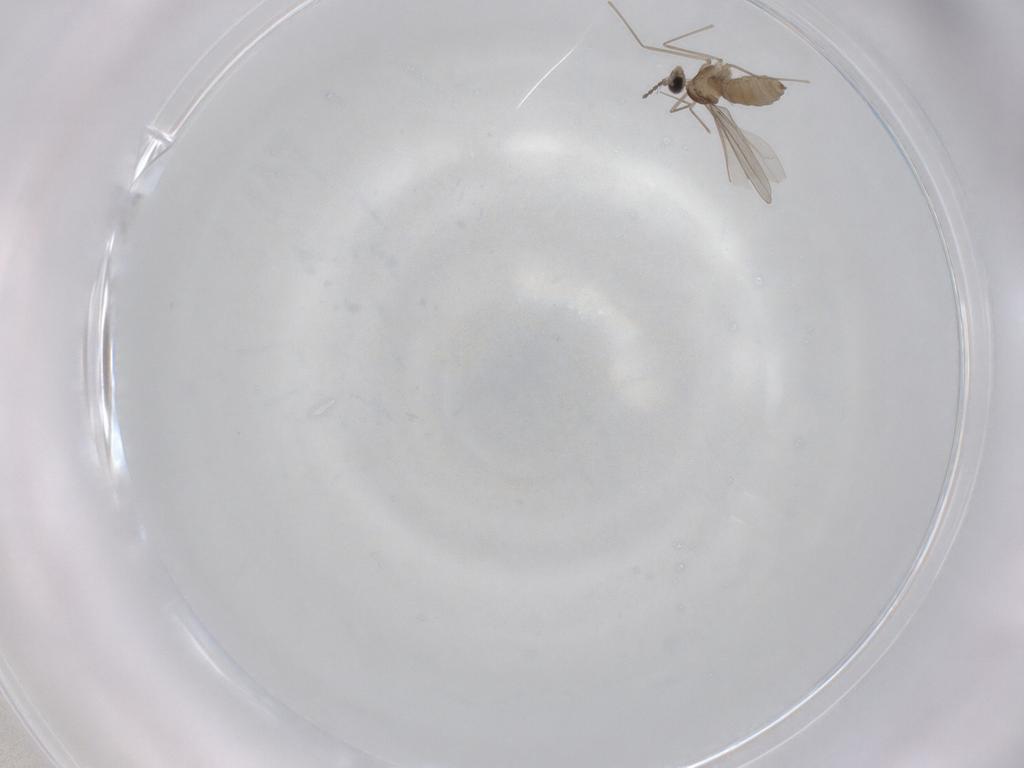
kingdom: Animalia
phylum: Arthropoda
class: Insecta
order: Diptera
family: Cecidomyiidae
